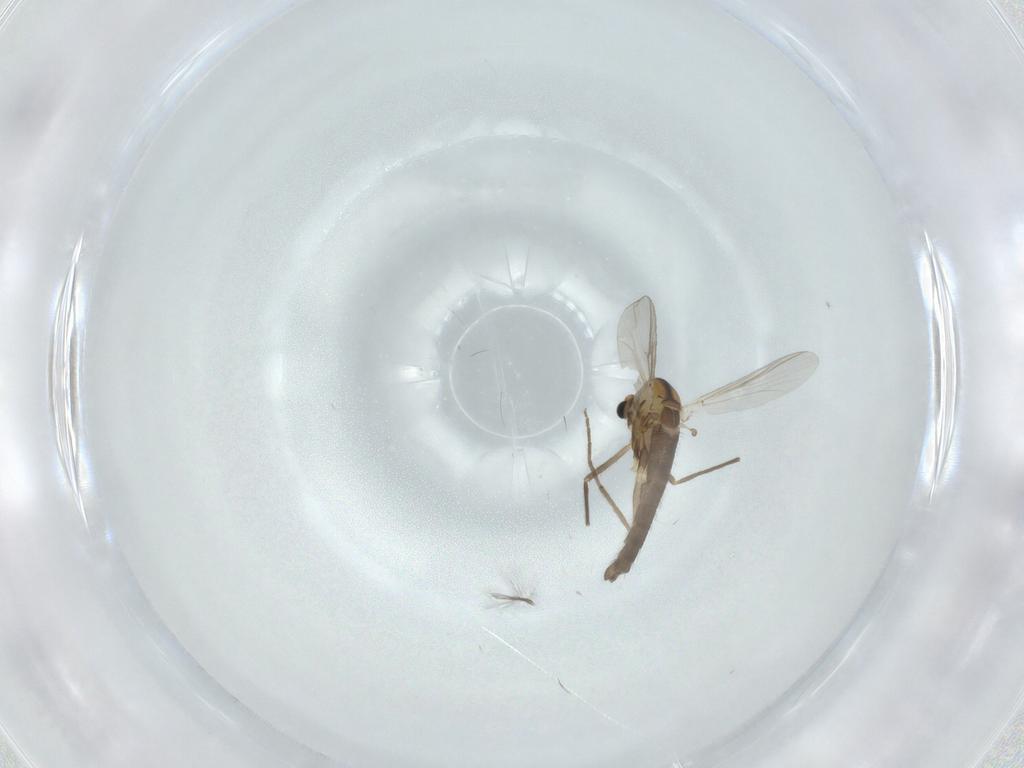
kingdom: Animalia
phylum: Arthropoda
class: Insecta
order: Diptera
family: Chironomidae
